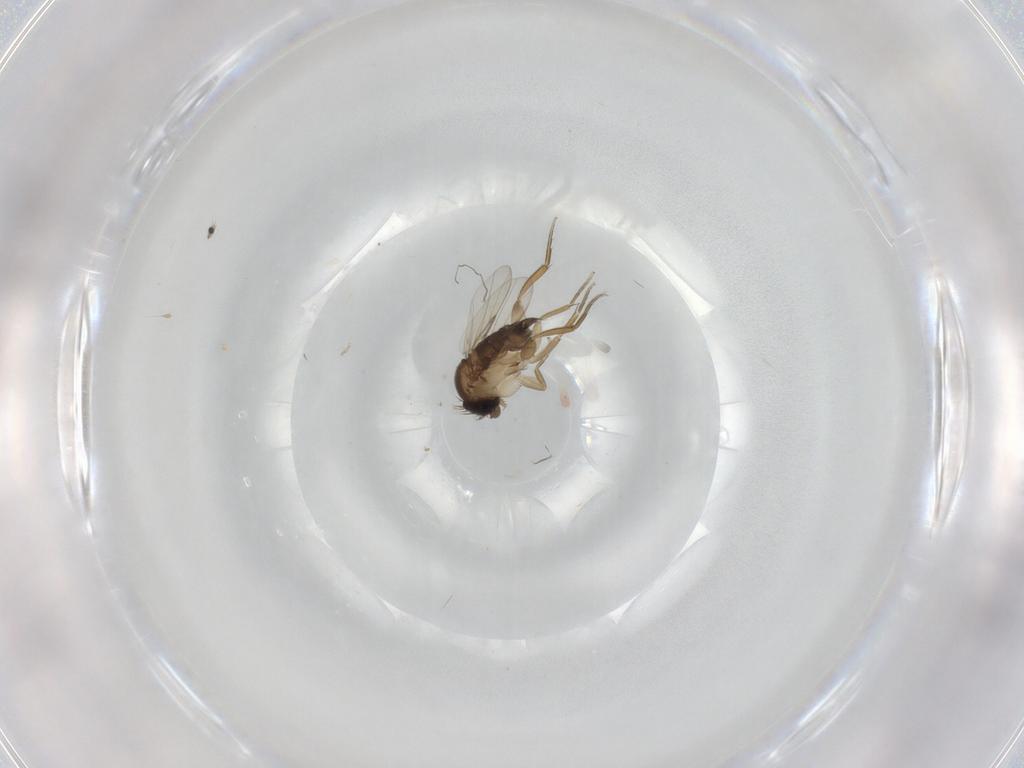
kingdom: Animalia
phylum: Arthropoda
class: Insecta
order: Diptera
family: Phoridae
